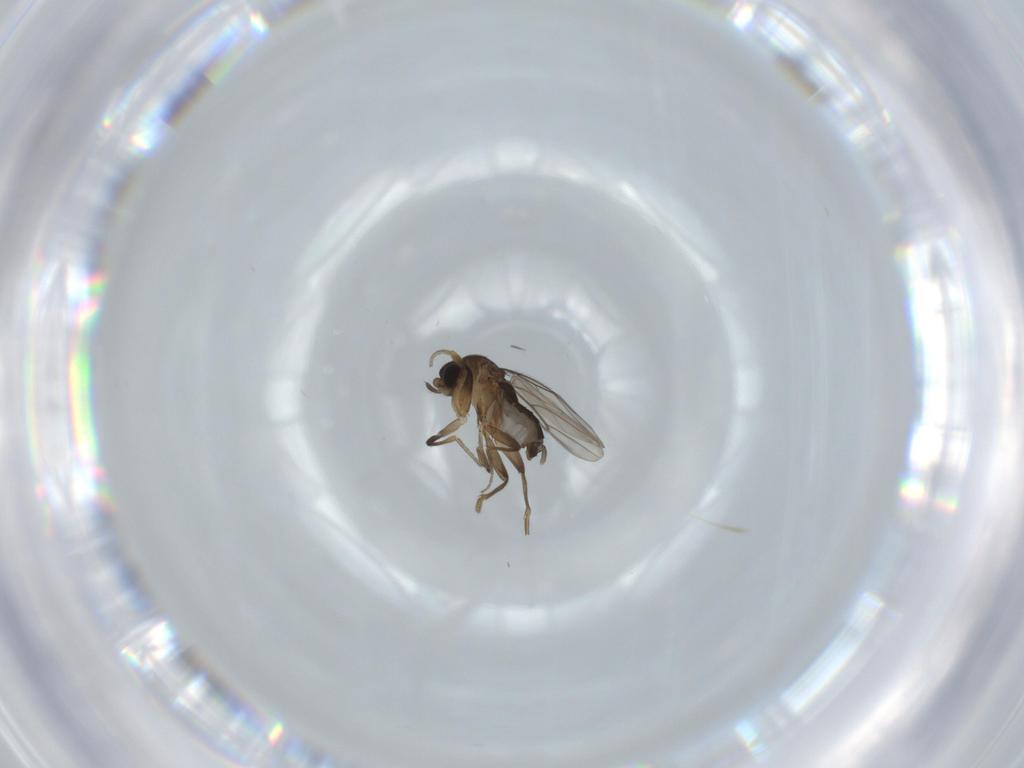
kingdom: Animalia
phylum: Arthropoda
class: Insecta
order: Diptera
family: Phoridae
